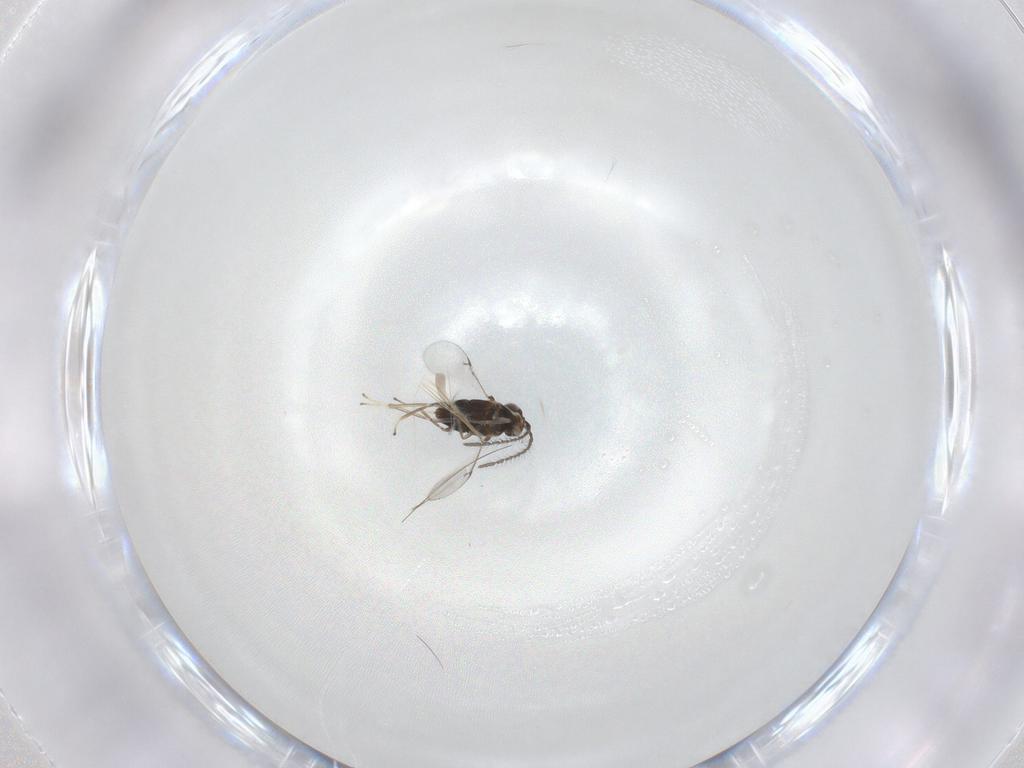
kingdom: Animalia
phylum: Arthropoda
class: Insecta
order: Hymenoptera
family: Encyrtidae
